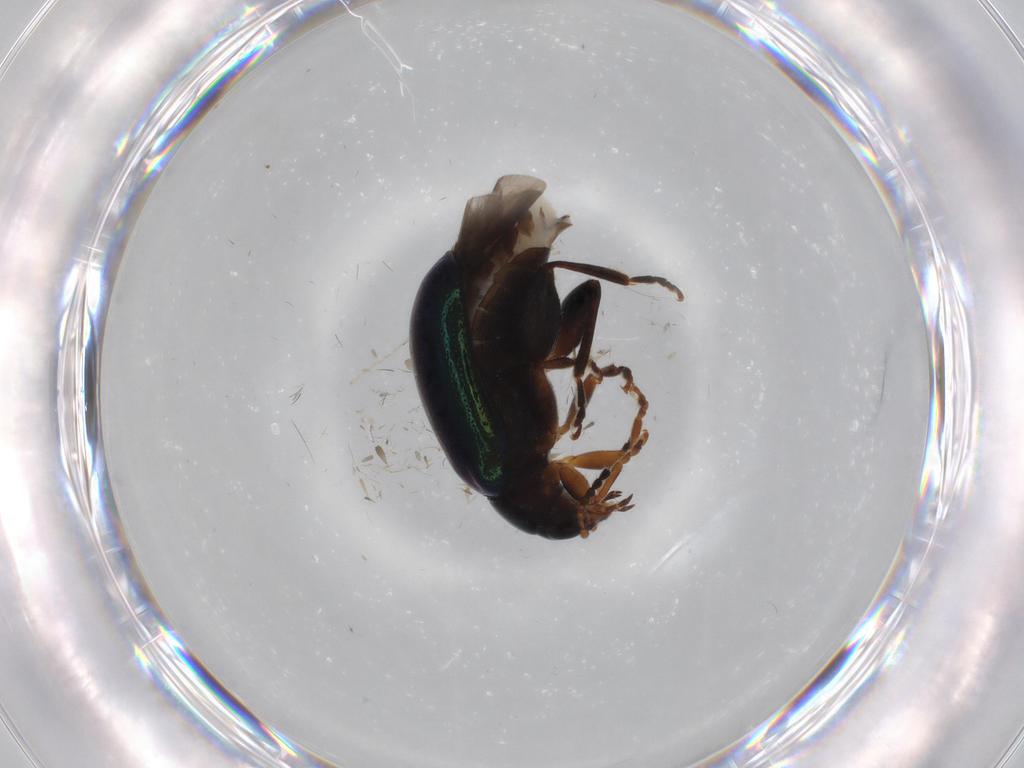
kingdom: Animalia
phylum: Arthropoda
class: Insecta
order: Coleoptera
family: Chrysomelidae
